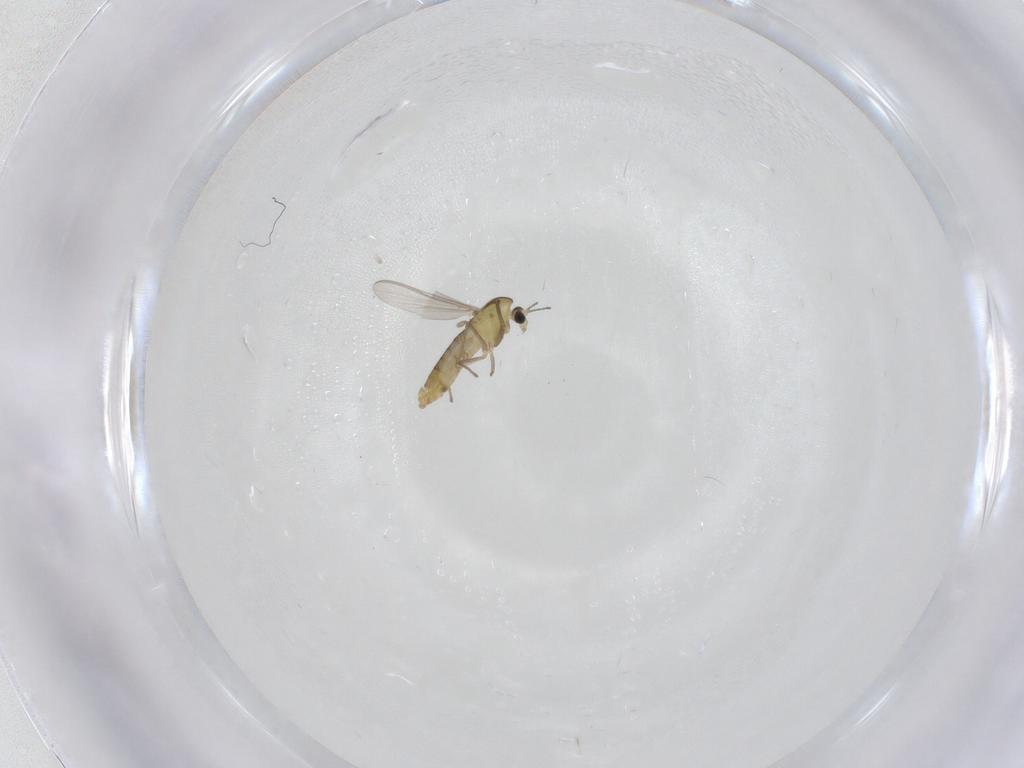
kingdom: Animalia
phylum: Arthropoda
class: Insecta
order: Diptera
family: Chironomidae
